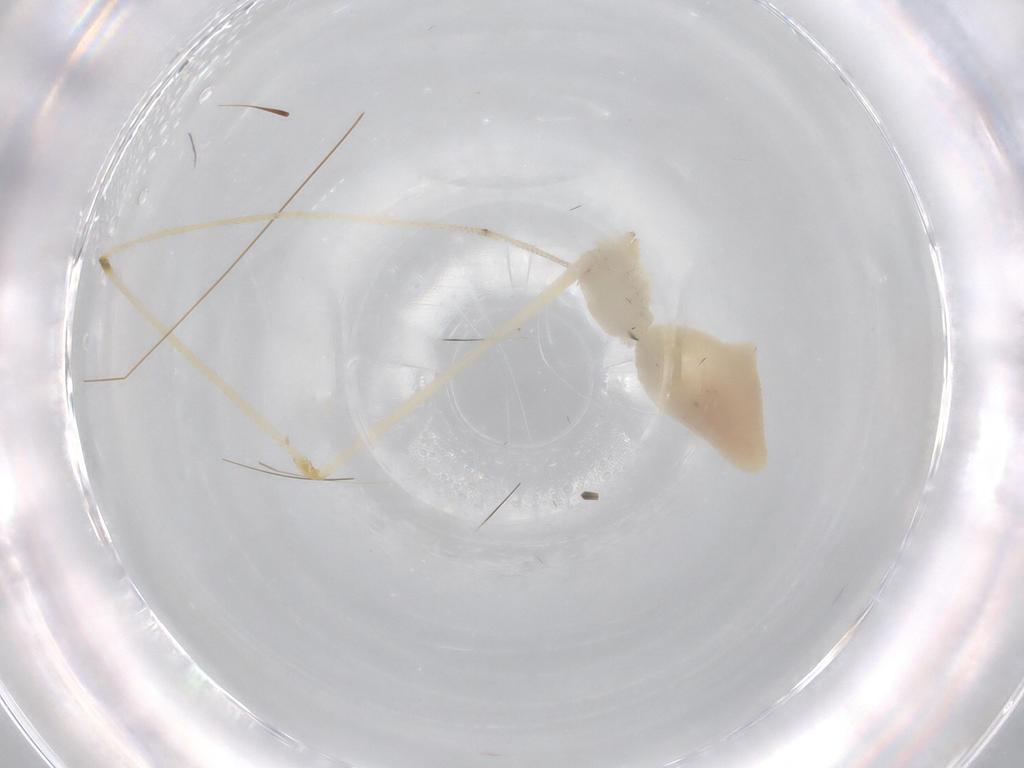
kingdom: Animalia
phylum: Arthropoda
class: Arachnida
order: Araneae
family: Pholcidae
